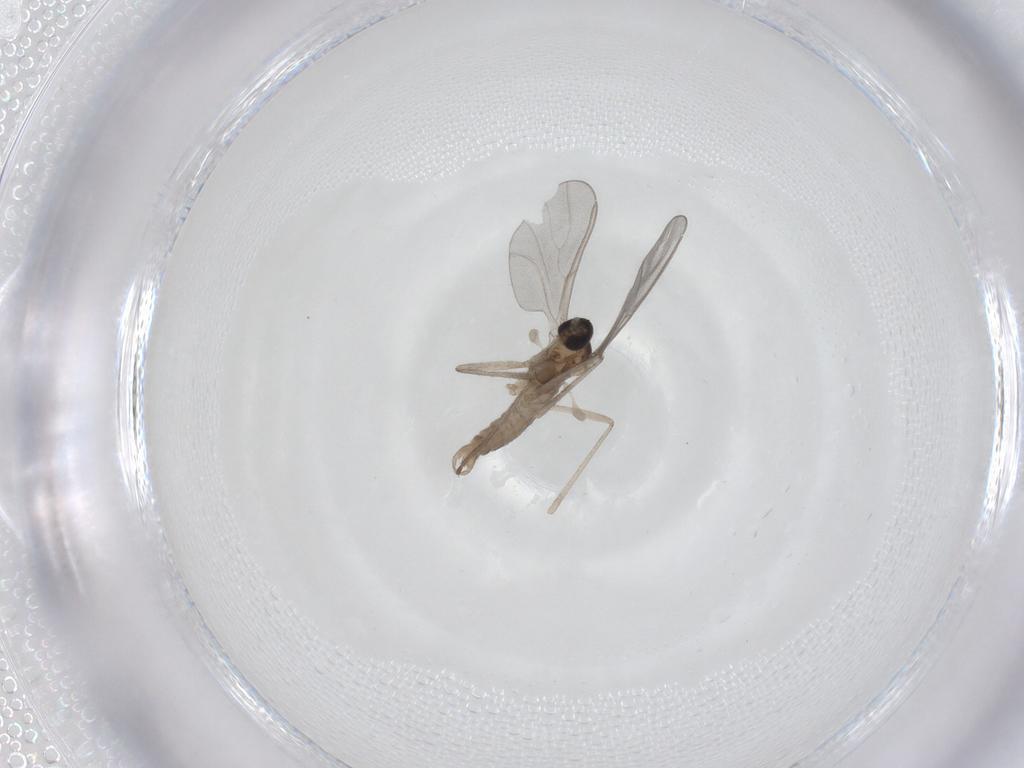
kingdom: Animalia
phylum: Arthropoda
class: Insecta
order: Diptera
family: Cecidomyiidae
